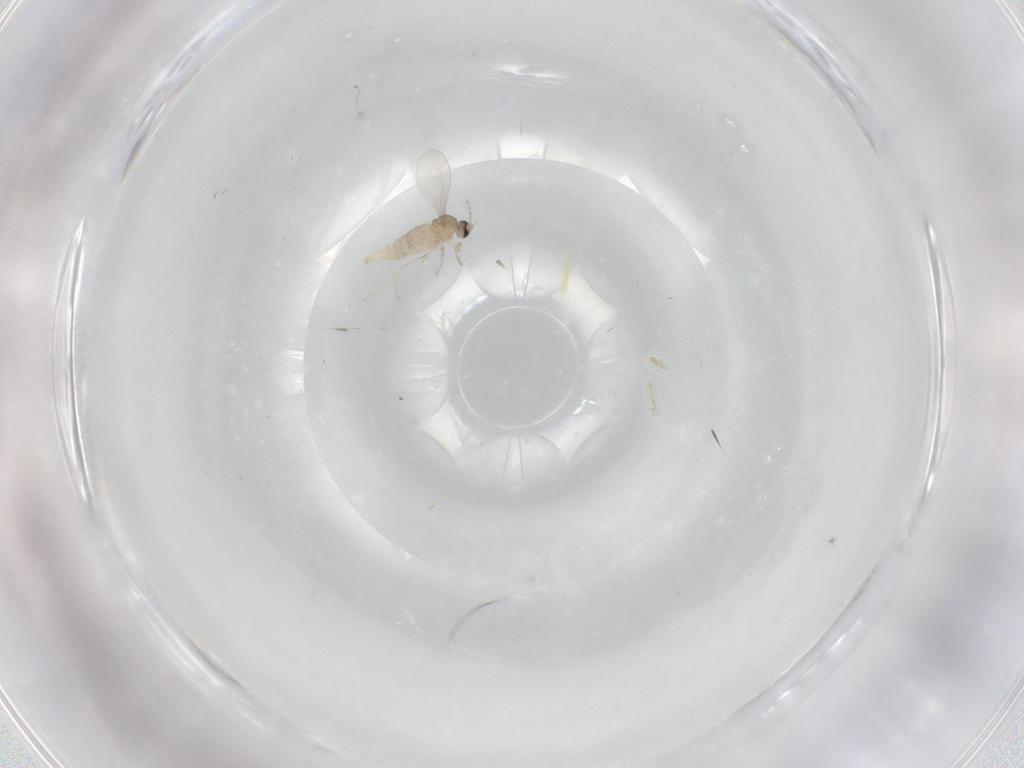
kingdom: Animalia
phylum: Arthropoda
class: Insecta
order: Diptera
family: Cecidomyiidae
